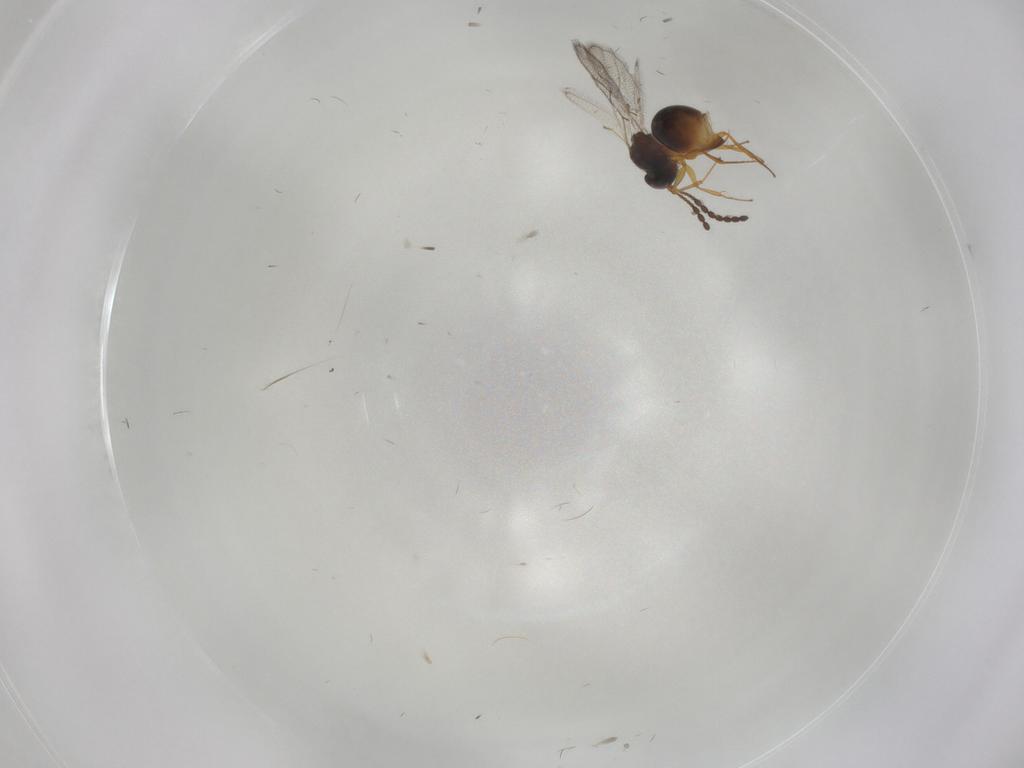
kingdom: Animalia
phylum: Arthropoda
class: Insecta
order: Hymenoptera
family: Figitidae
